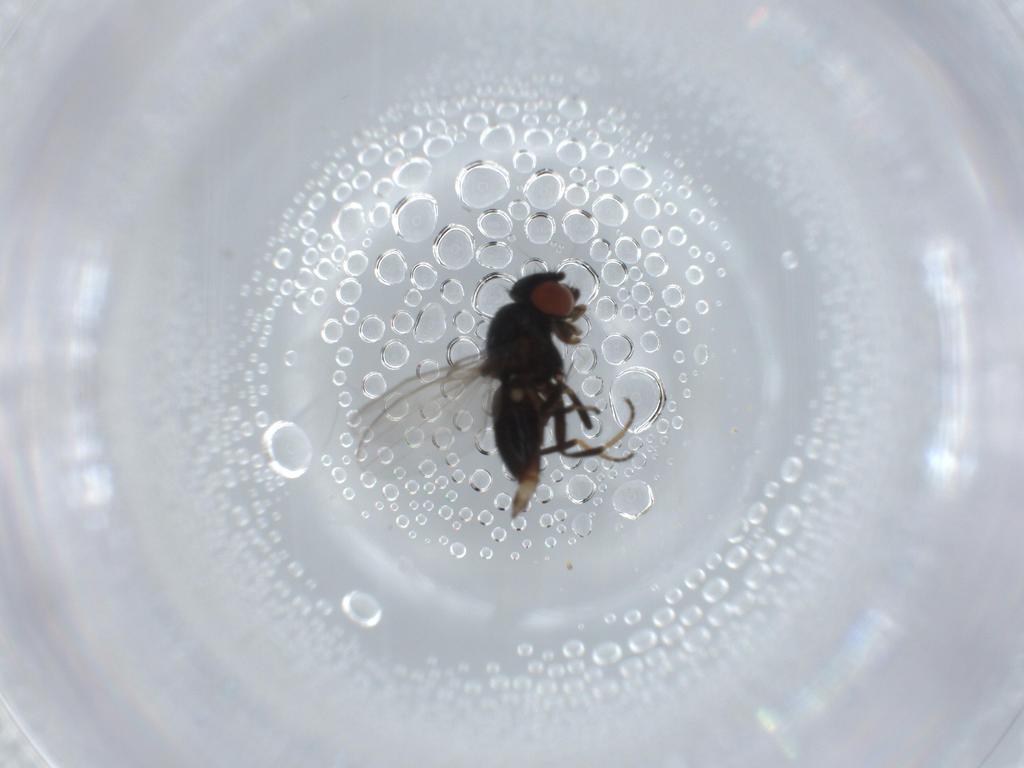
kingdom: Animalia
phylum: Arthropoda
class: Insecta
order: Diptera
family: Milichiidae
